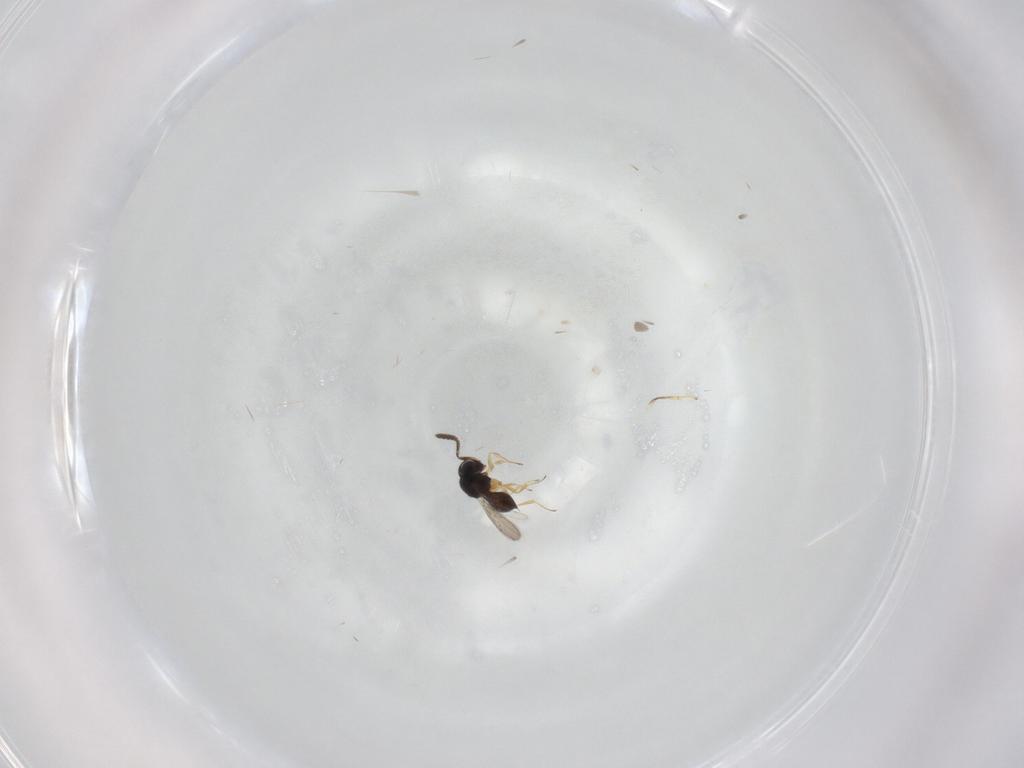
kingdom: Animalia
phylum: Arthropoda
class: Insecta
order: Hymenoptera
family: Scelionidae
